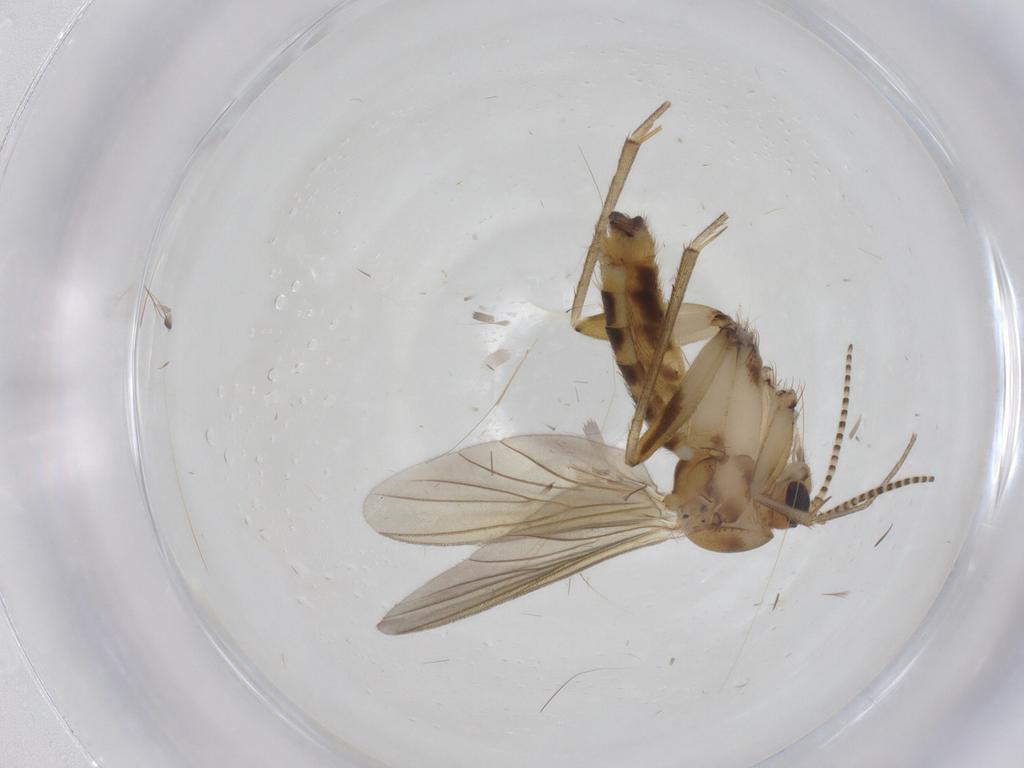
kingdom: Animalia
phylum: Arthropoda
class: Insecta
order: Diptera
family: Mycetophilidae
